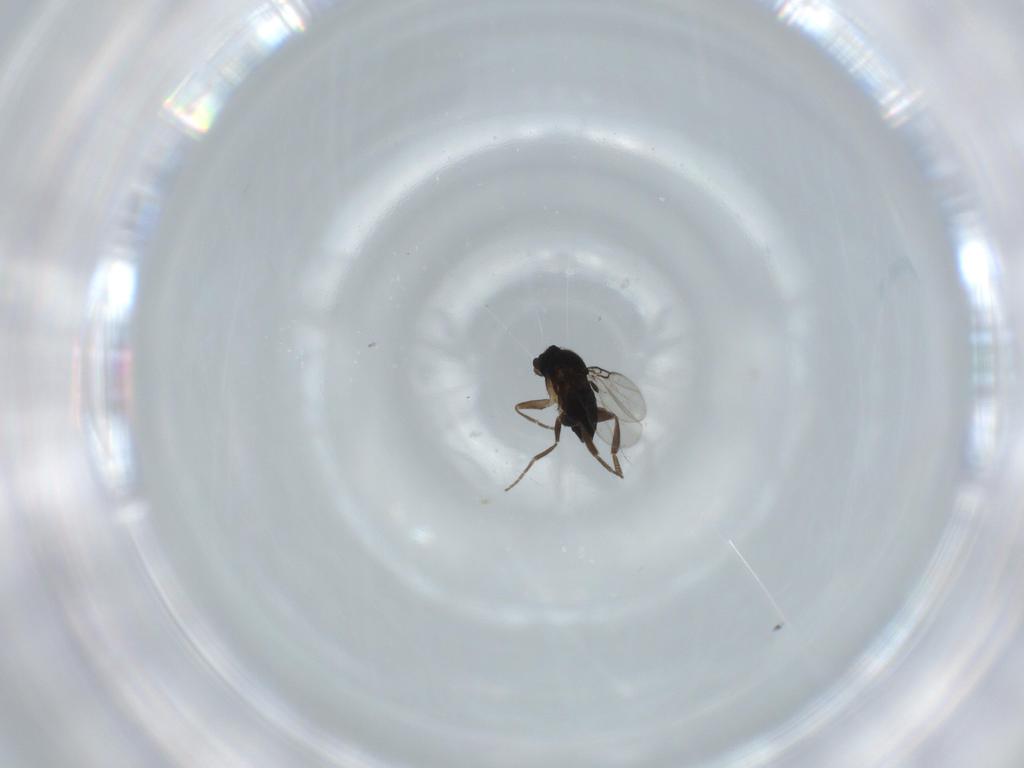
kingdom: Animalia
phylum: Arthropoda
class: Insecta
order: Diptera
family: Phoridae
